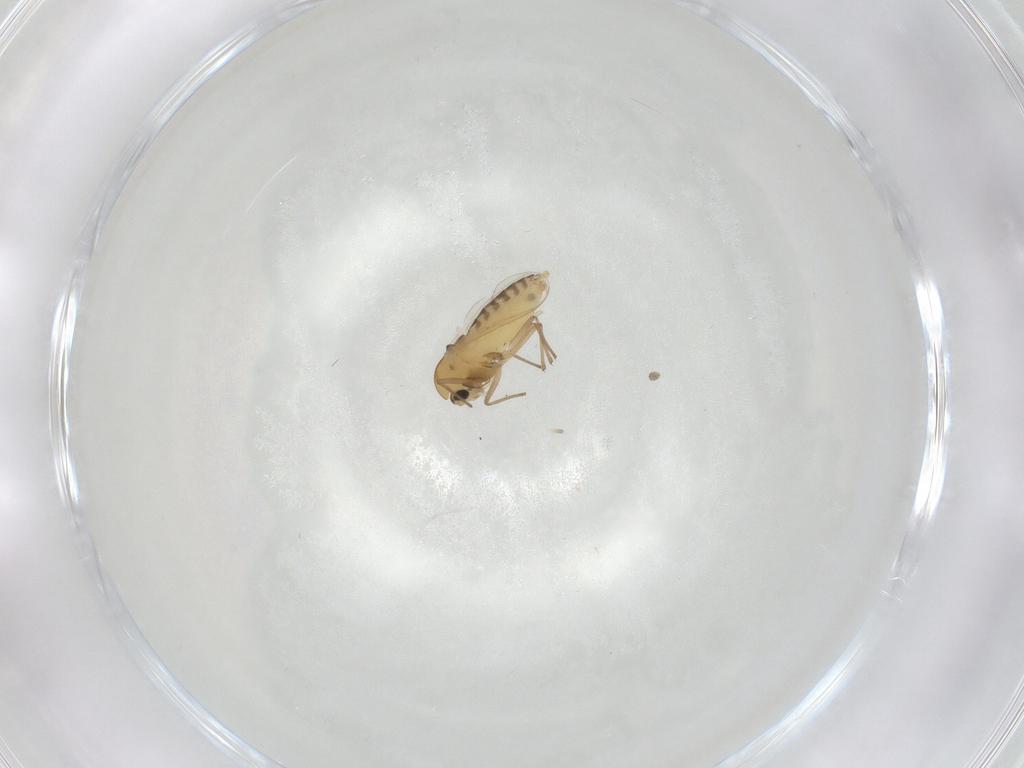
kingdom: Animalia
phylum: Arthropoda
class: Insecta
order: Diptera
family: Chironomidae
